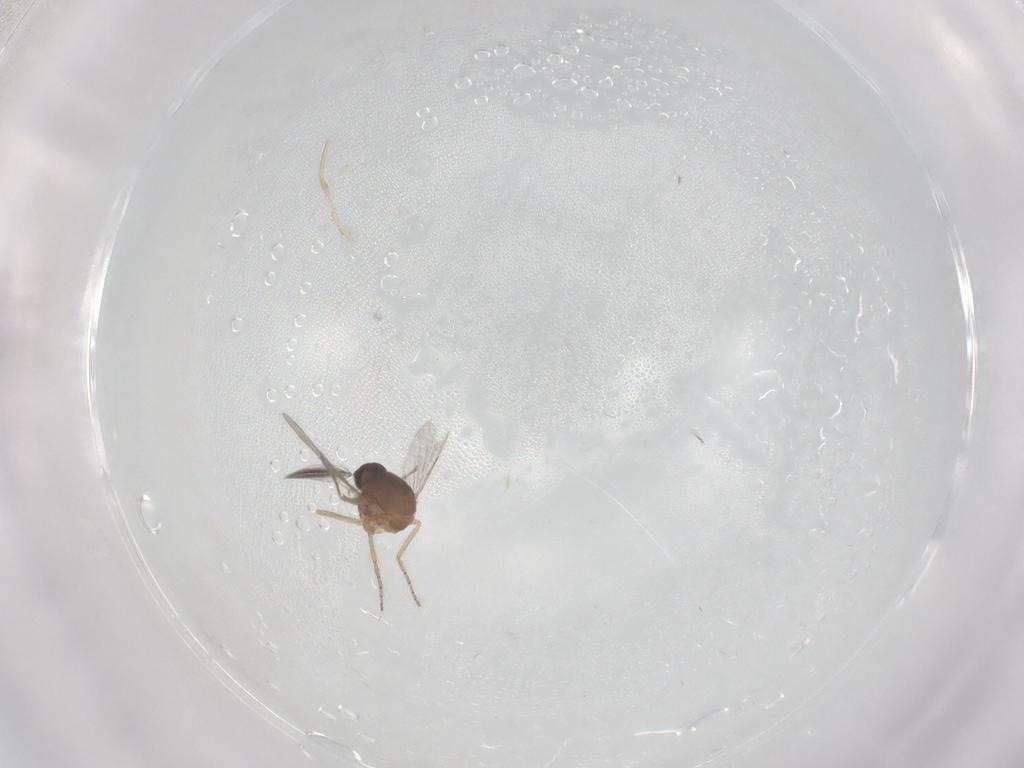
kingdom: Animalia
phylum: Arthropoda
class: Insecta
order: Diptera
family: Ceratopogonidae
